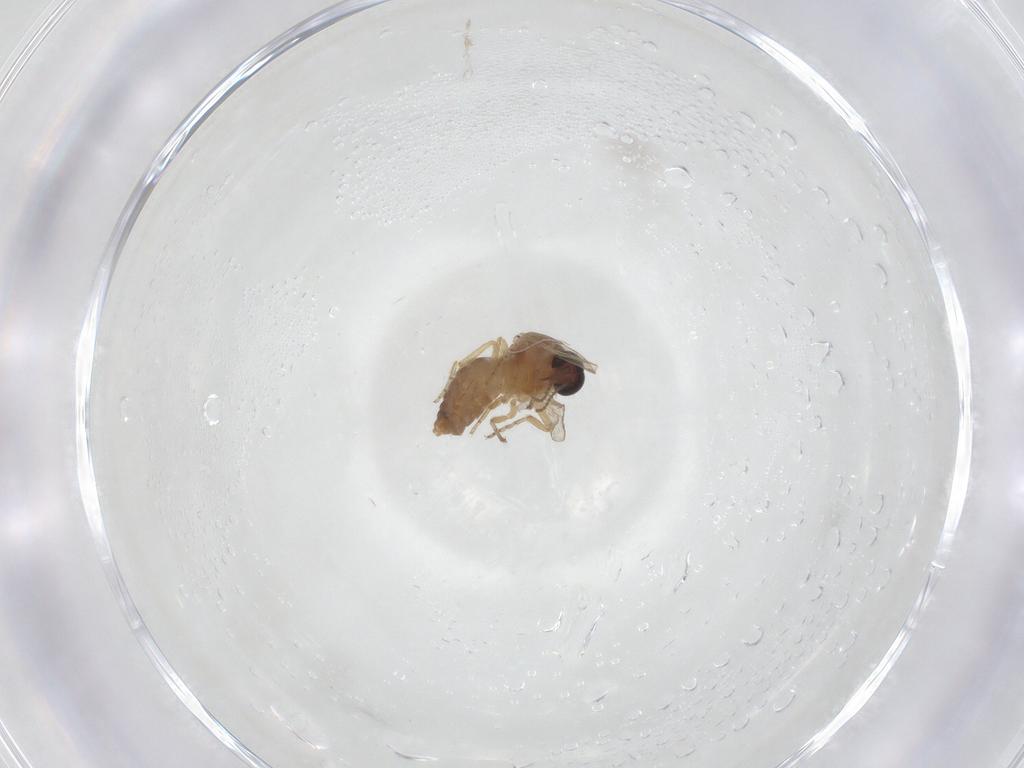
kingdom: Animalia
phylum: Arthropoda
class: Insecta
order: Diptera
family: Ceratopogonidae
